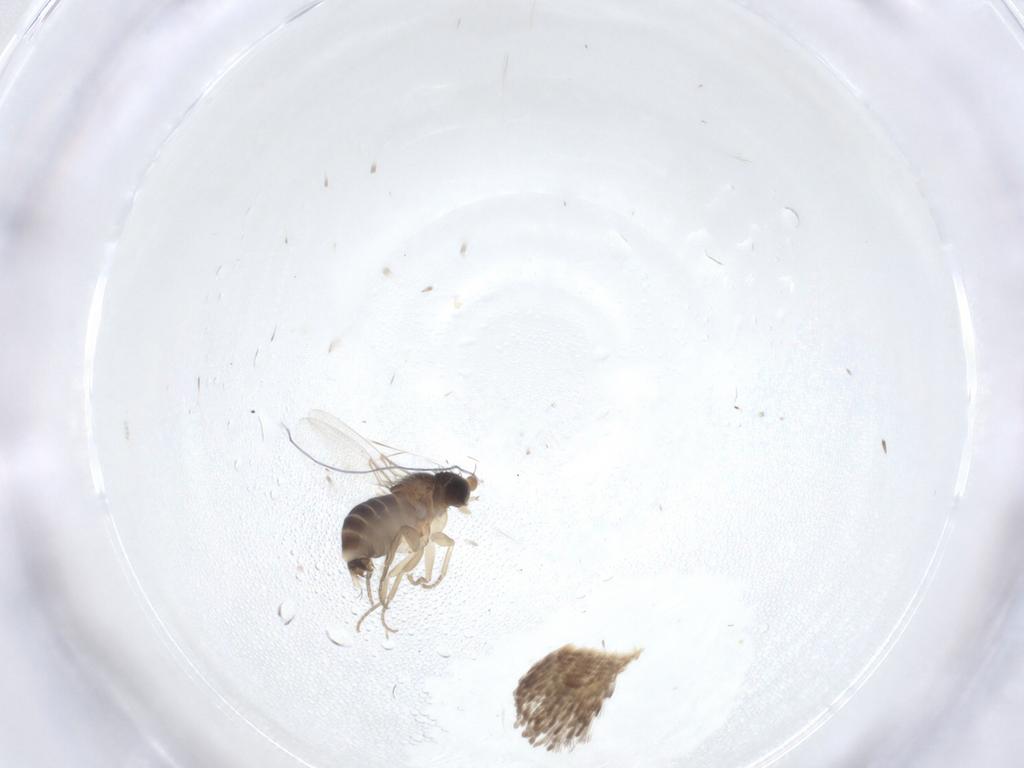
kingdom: Animalia
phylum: Arthropoda
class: Insecta
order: Diptera
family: Phoridae
